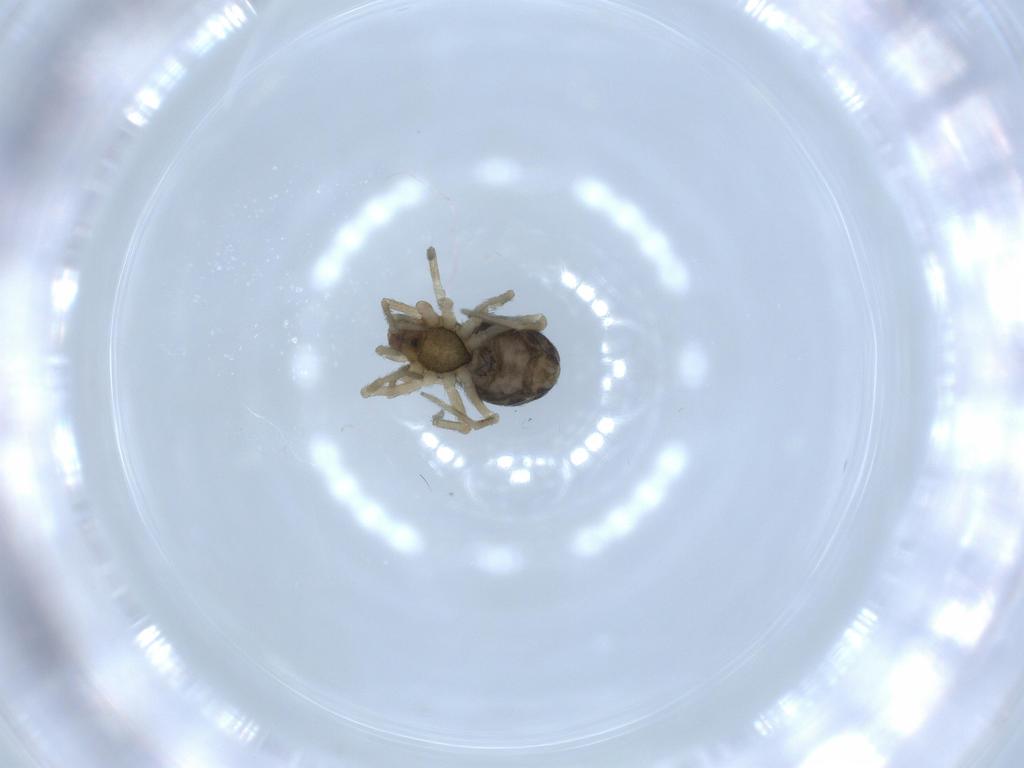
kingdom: Animalia
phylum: Arthropoda
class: Arachnida
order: Araneae
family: Dictynidae
